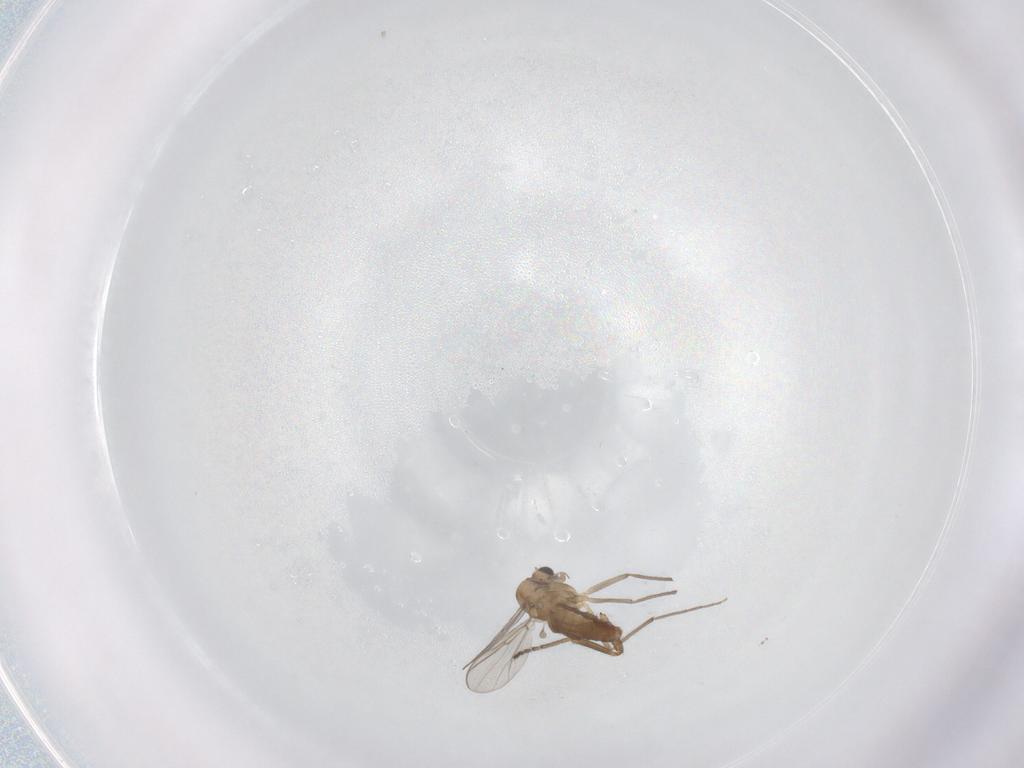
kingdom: Animalia
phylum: Arthropoda
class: Insecta
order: Diptera
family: Chironomidae
